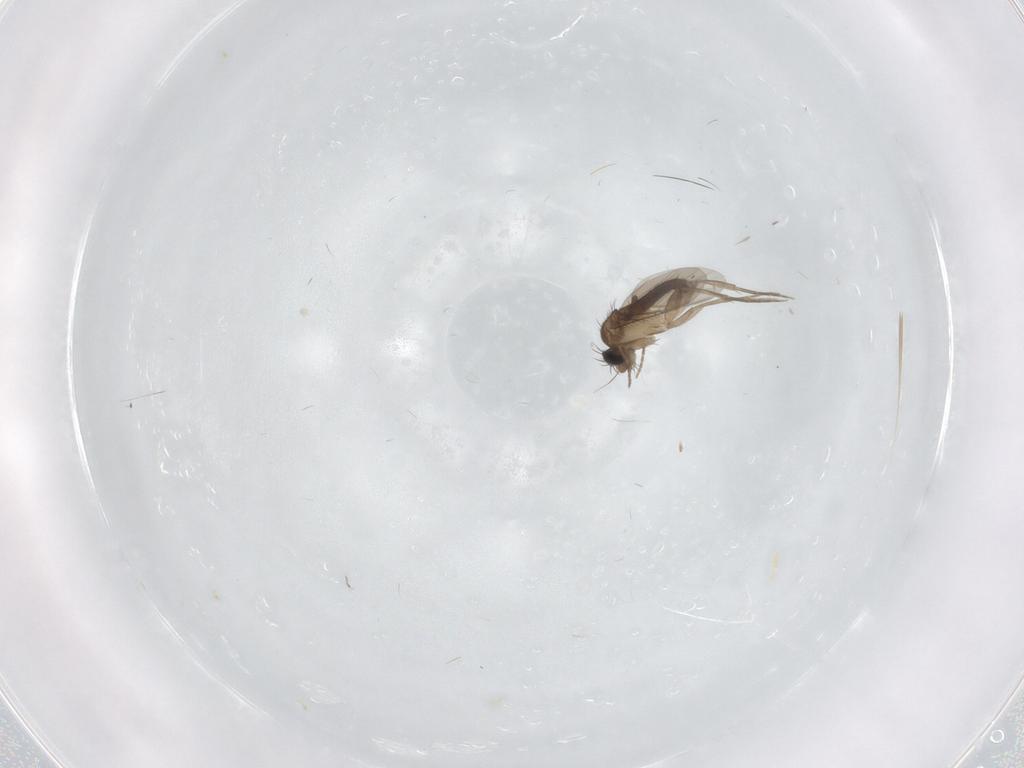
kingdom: Animalia
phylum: Arthropoda
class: Insecta
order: Diptera
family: Phoridae
